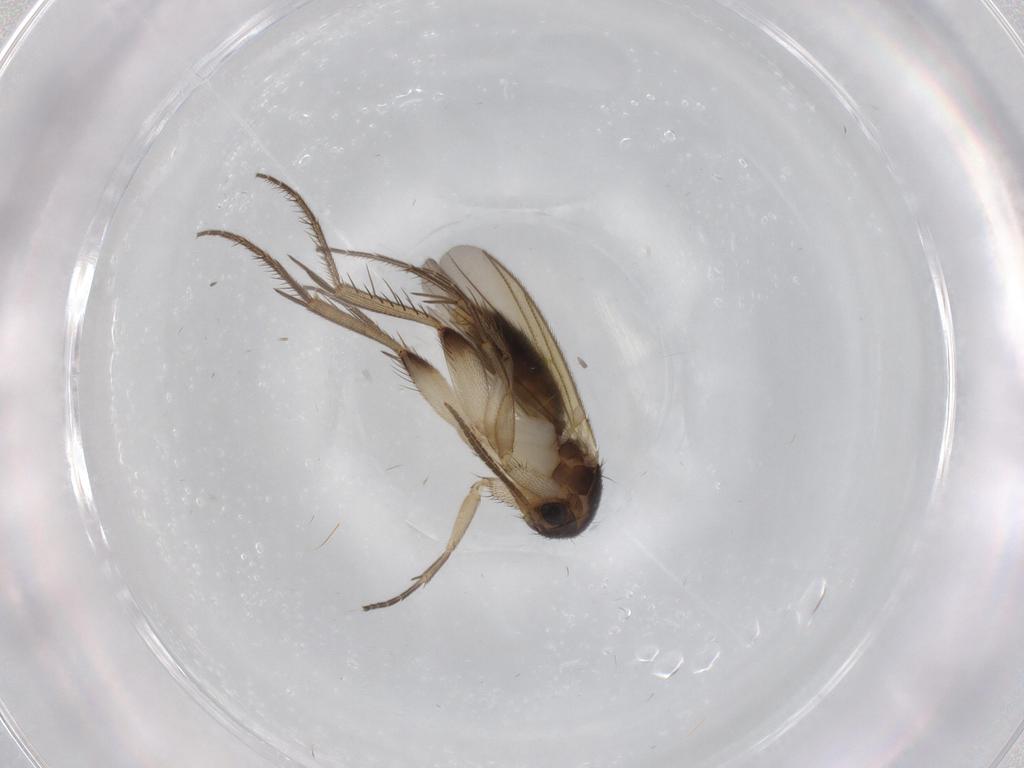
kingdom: Animalia
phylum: Arthropoda
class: Insecta
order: Diptera
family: Mycetophilidae
